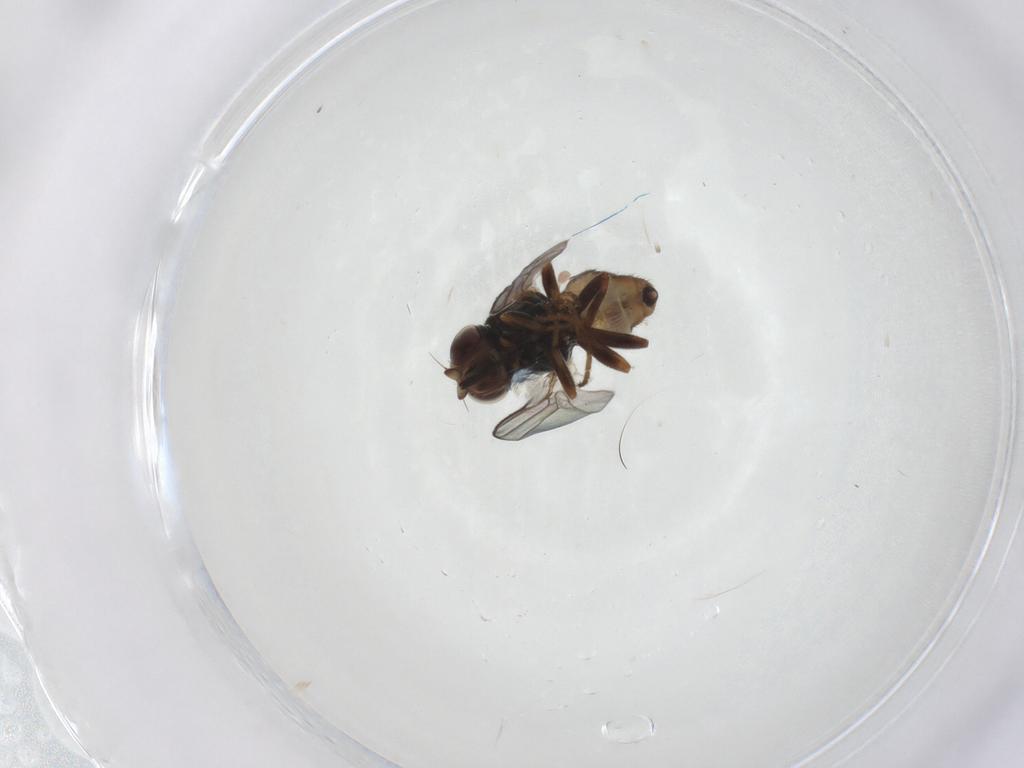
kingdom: Animalia
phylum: Arthropoda
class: Insecta
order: Diptera
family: Chloropidae
